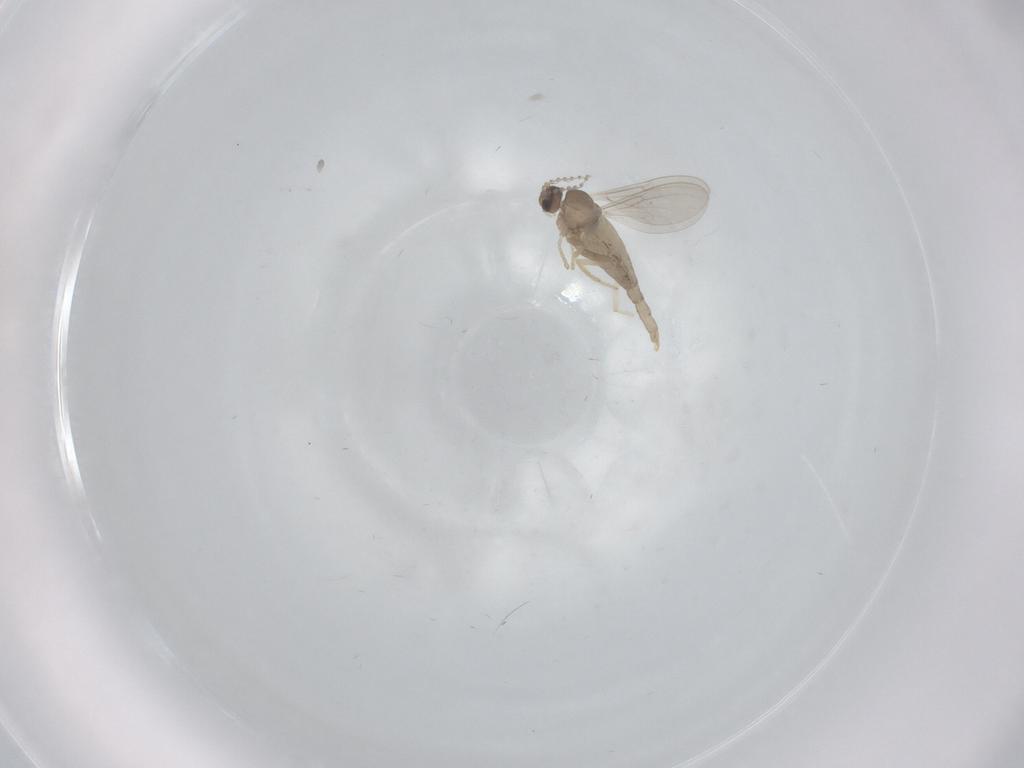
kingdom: Animalia
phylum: Arthropoda
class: Insecta
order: Diptera
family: Cecidomyiidae
